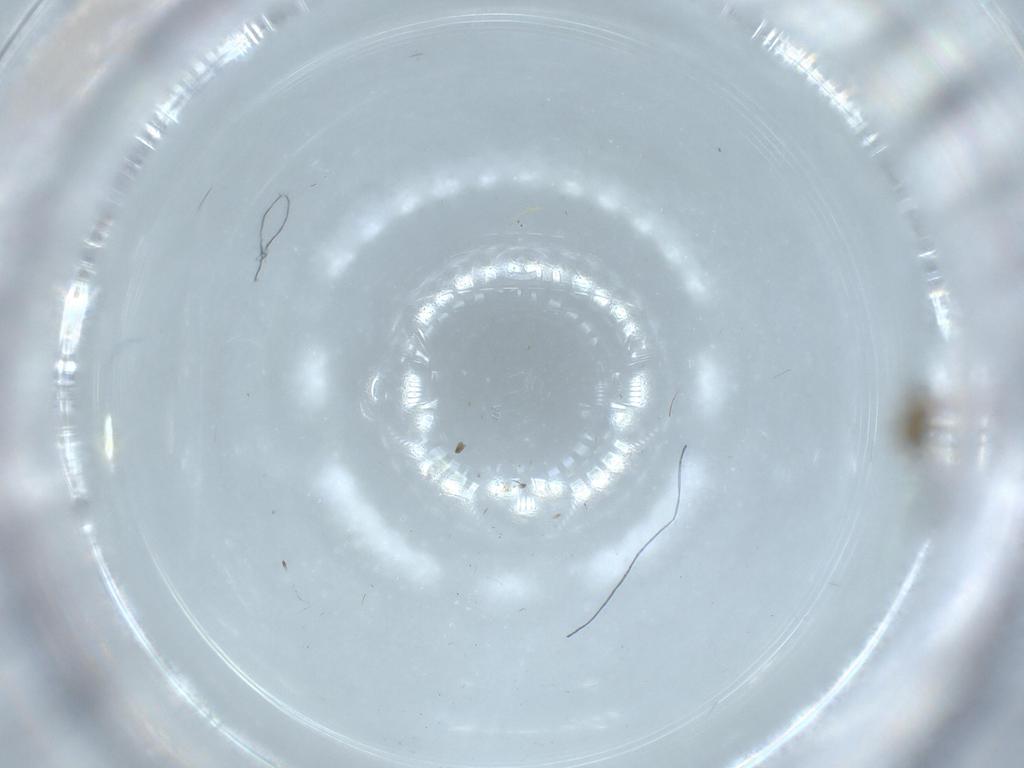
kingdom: Animalia
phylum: Arthropoda
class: Insecta
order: Diptera
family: Chironomidae
